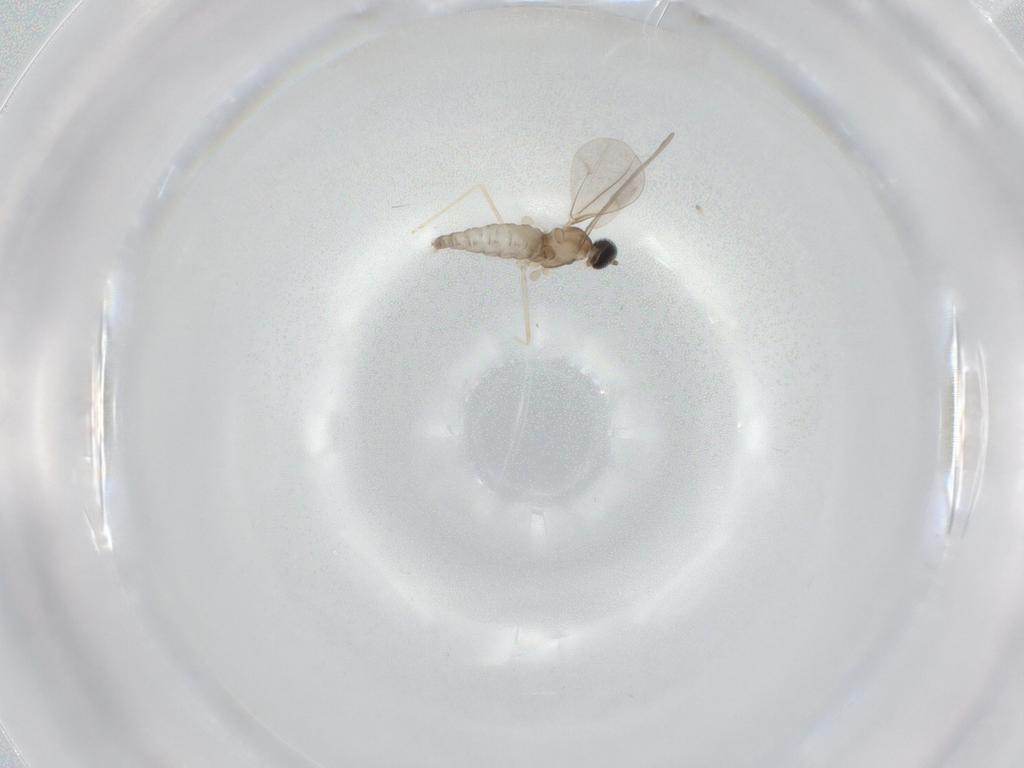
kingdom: Animalia
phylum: Arthropoda
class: Insecta
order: Diptera
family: Cecidomyiidae
